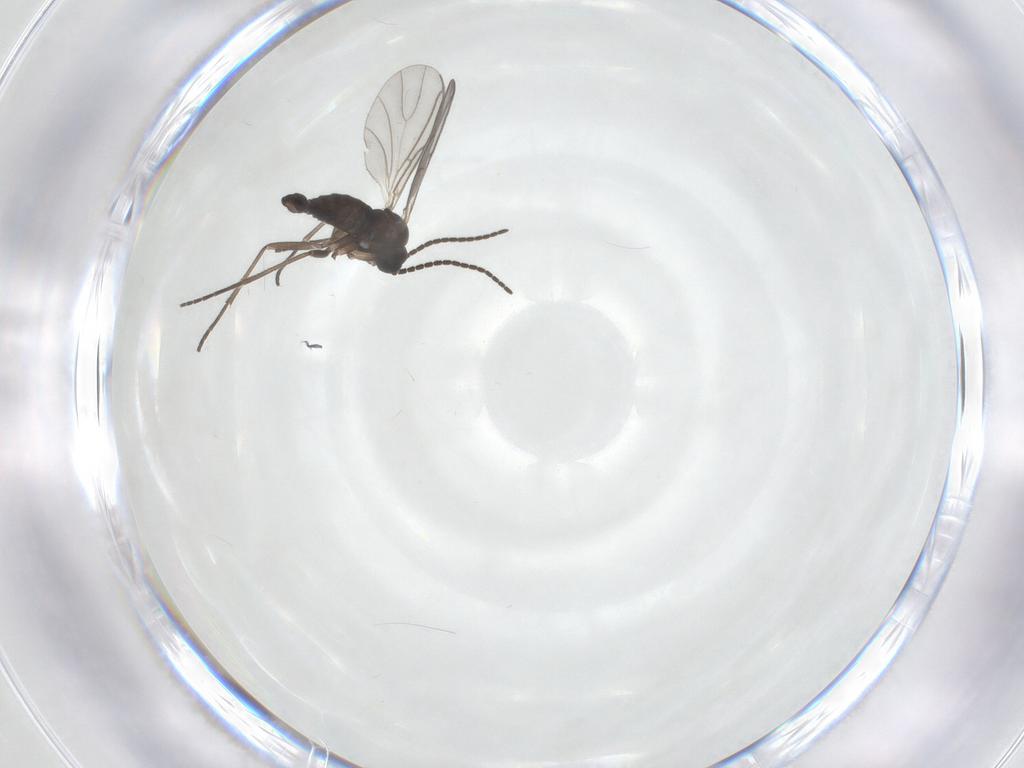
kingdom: Animalia
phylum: Arthropoda
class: Insecta
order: Diptera
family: Sciaridae
